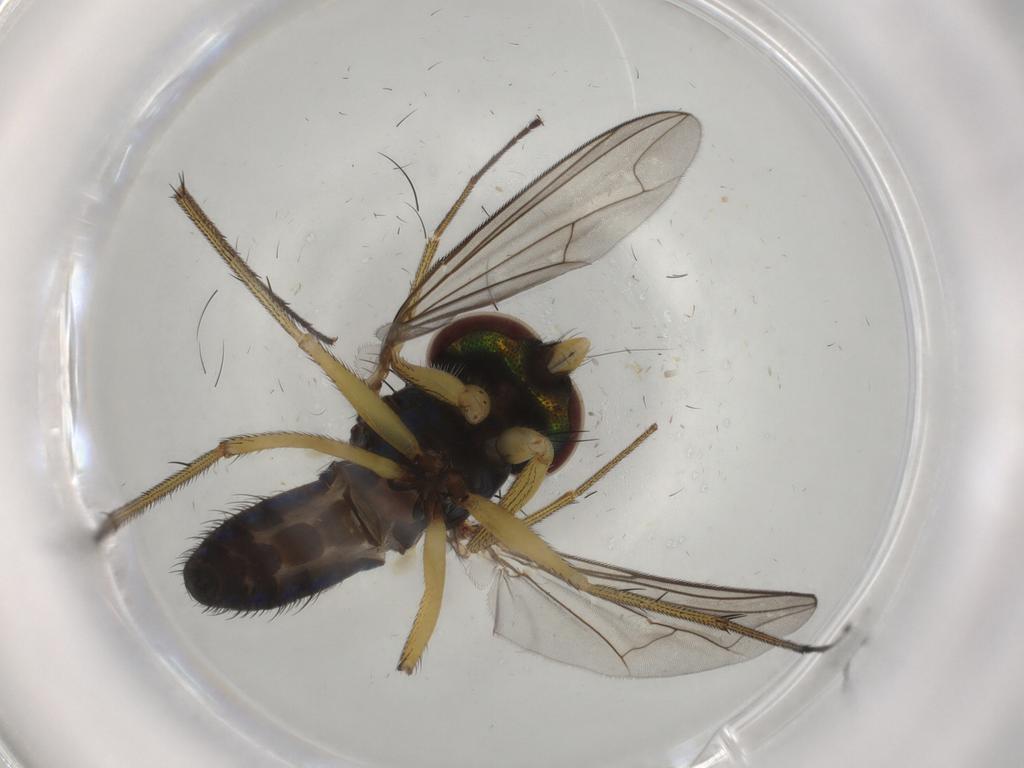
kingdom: Animalia
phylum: Arthropoda
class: Insecta
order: Diptera
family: Dolichopodidae
